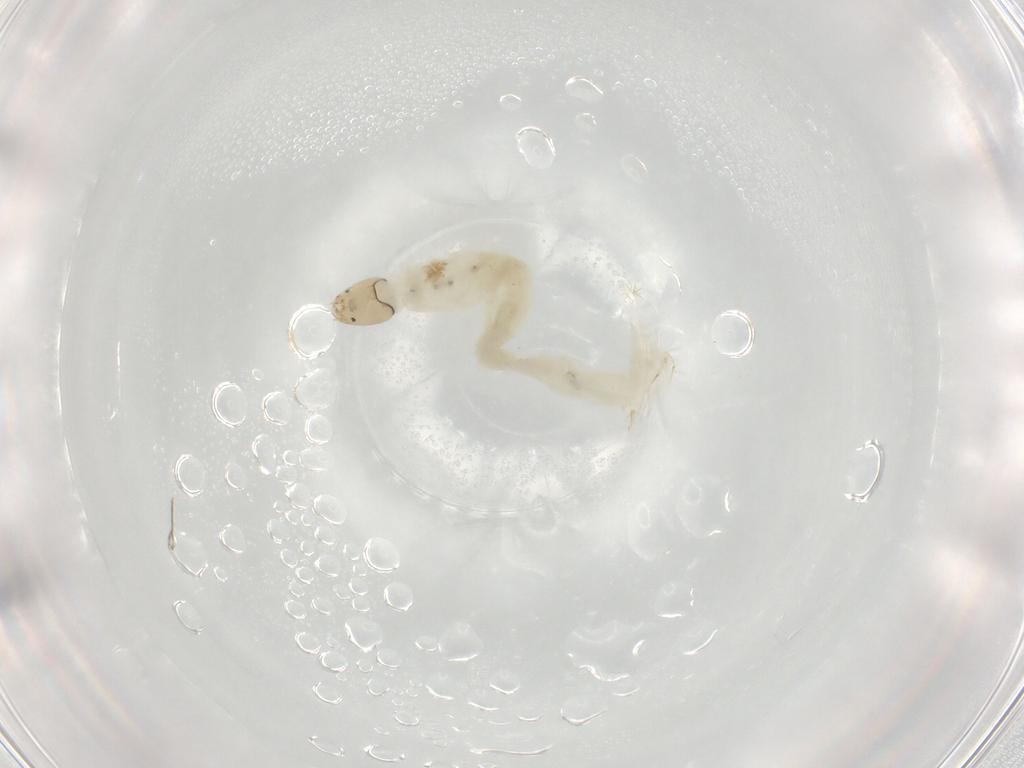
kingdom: Animalia
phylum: Arthropoda
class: Insecta
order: Diptera
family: Chironomidae
